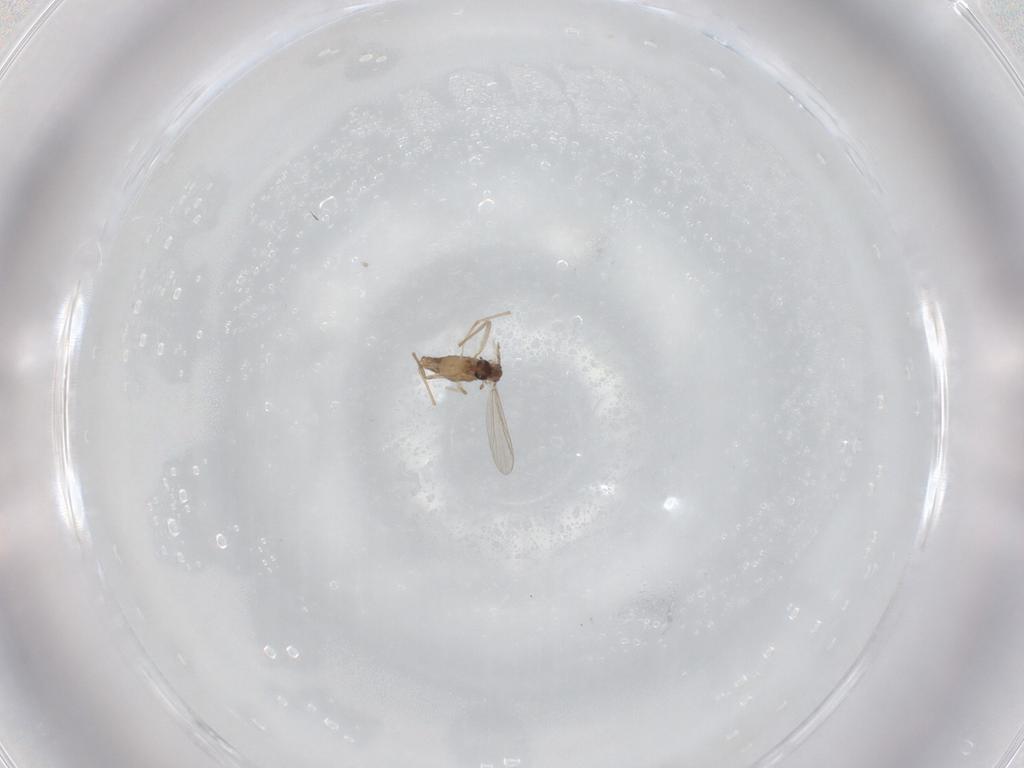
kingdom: Animalia
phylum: Arthropoda
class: Insecta
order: Diptera
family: Chironomidae
